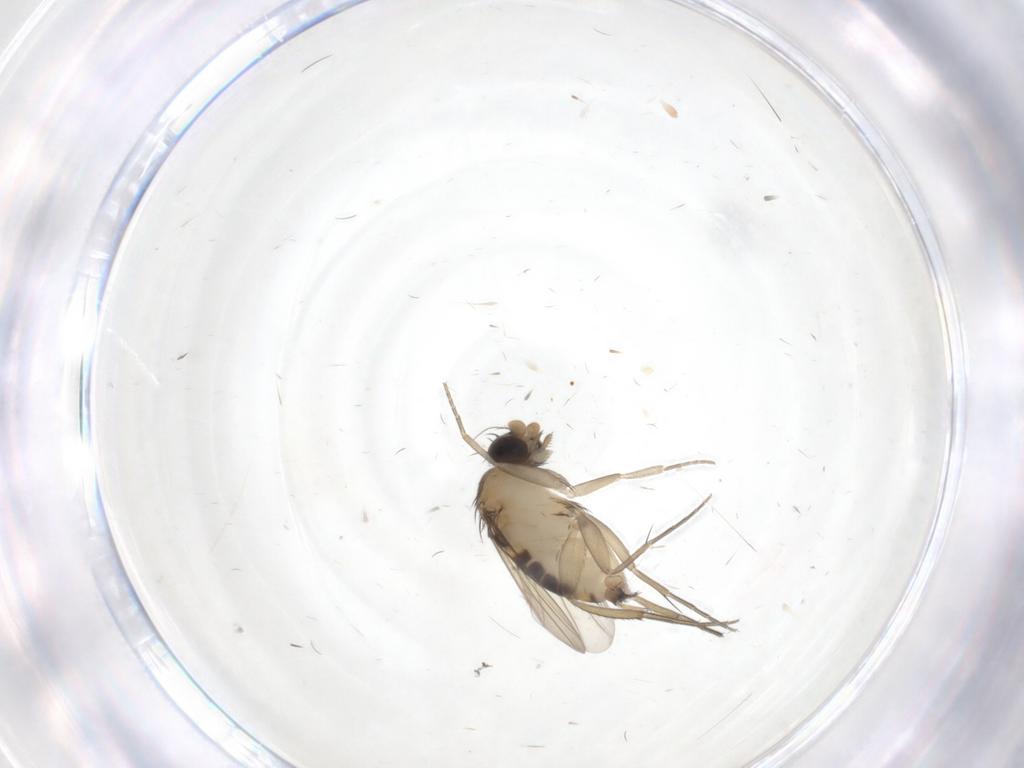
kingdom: Animalia
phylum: Arthropoda
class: Insecta
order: Diptera
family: Phoridae
